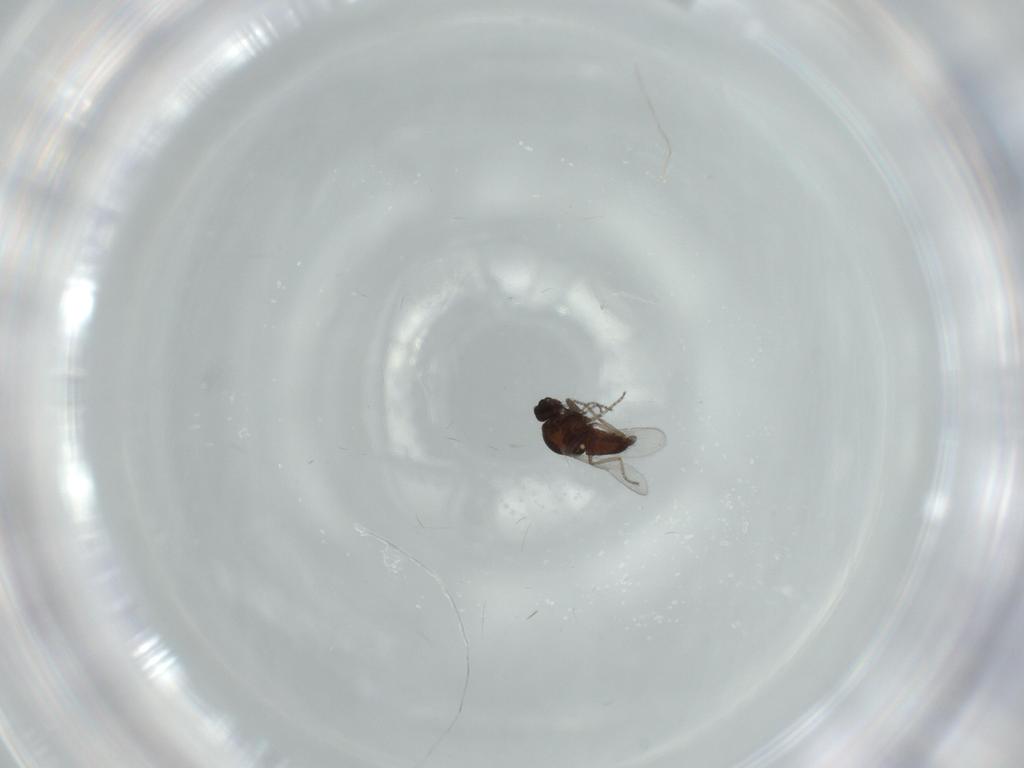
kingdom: Animalia
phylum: Arthropoda
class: Insecta
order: Diptera
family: Ceratopogonidae
